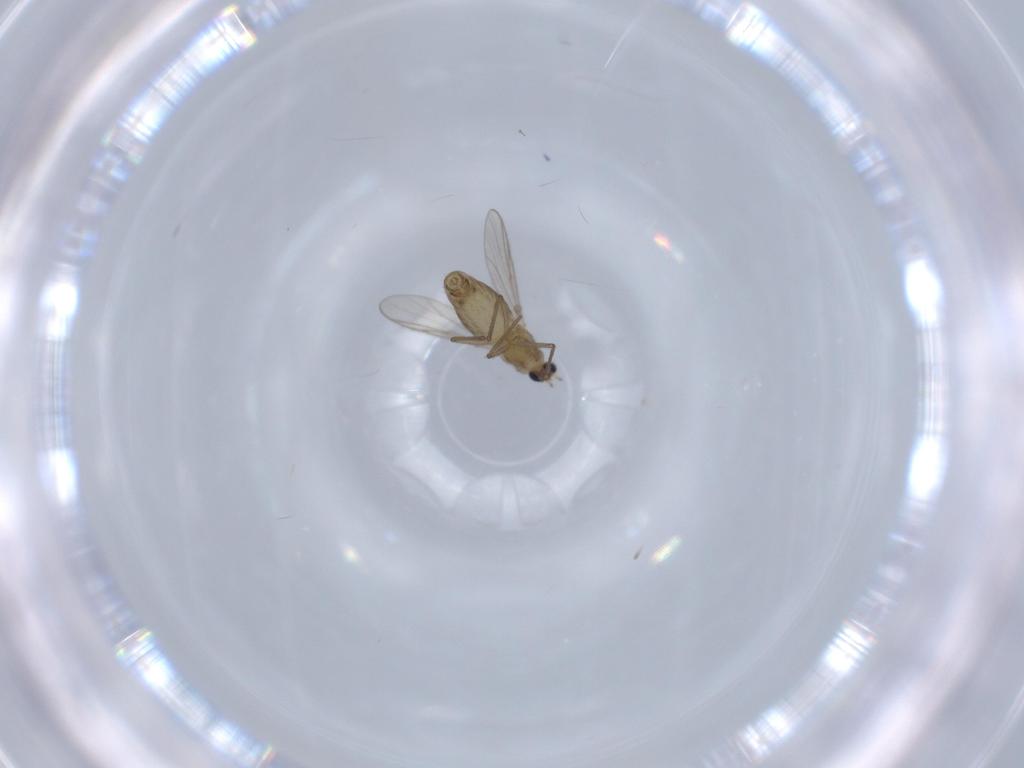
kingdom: Animalia
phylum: Arthropoda
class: Insecta
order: Diptera
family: Chironomidae
